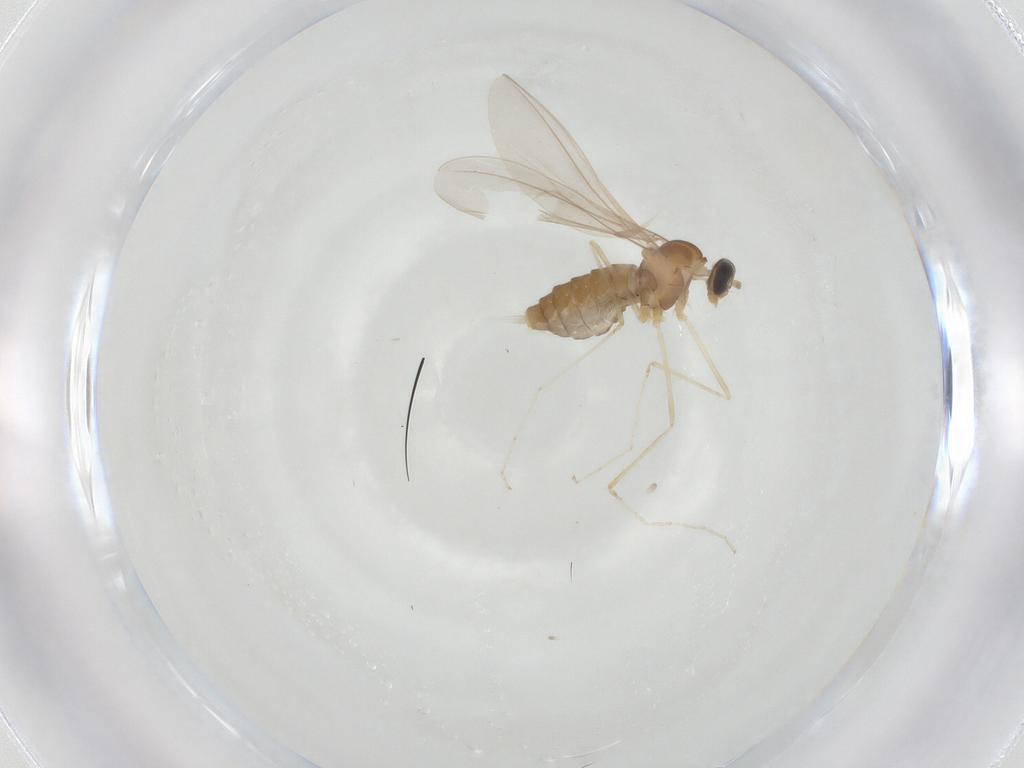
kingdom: Animalia
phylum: Arthropoda
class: Insecta
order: Diptera
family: Cecidomyiidae
